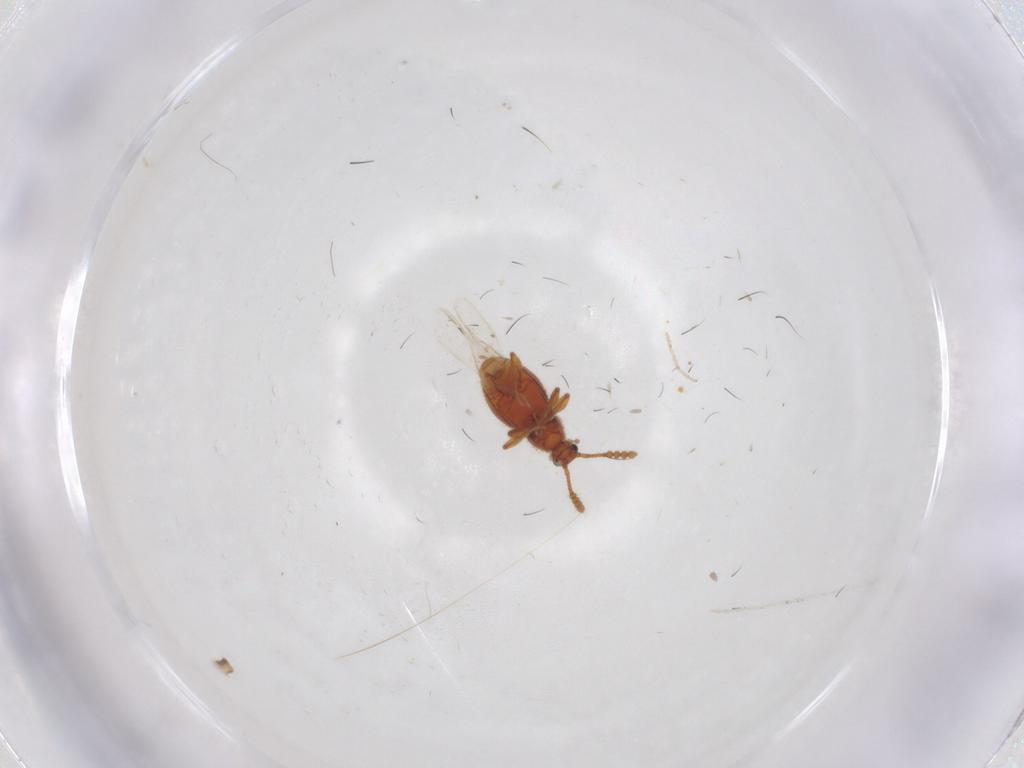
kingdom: Animalia
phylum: Arthropoda
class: Insecta
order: Coleoptera
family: Staphylinidae
